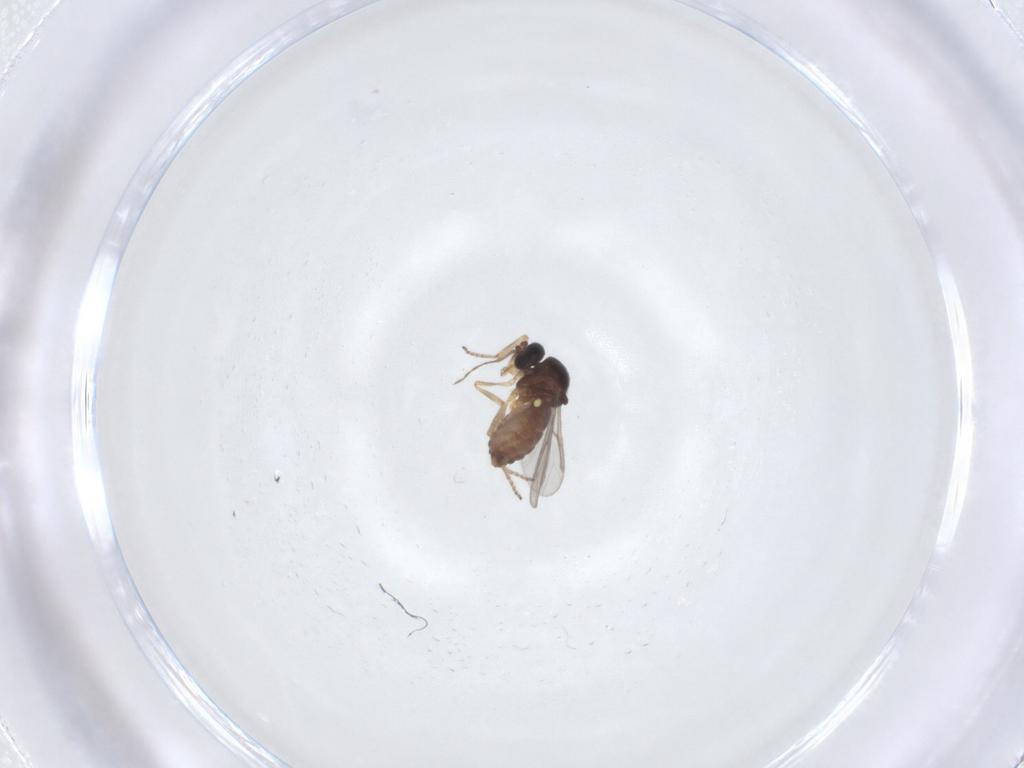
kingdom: Animalia
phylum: Arthropoda
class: Insecta
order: Diptera
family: Ceratopogonidae
